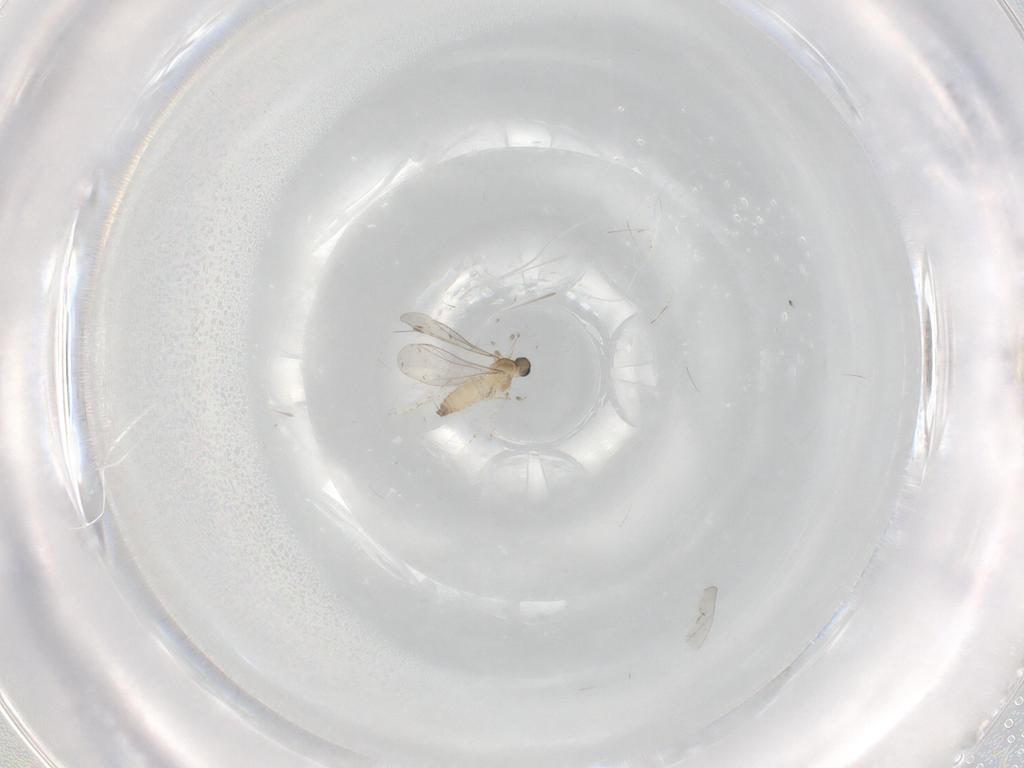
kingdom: Animalia
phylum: Arthropoda
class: Insecta
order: Diptera
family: Cecidomyiidae
